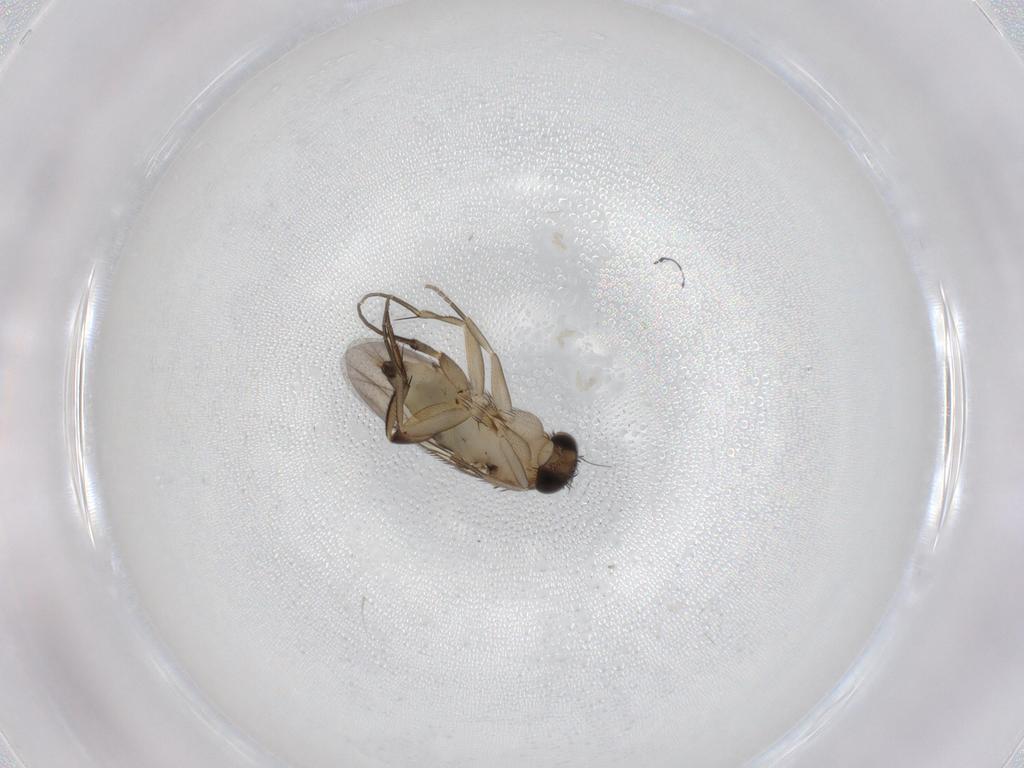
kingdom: Animalia
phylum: Arthropoda
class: Insecta
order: Diptera
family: Phoridae
